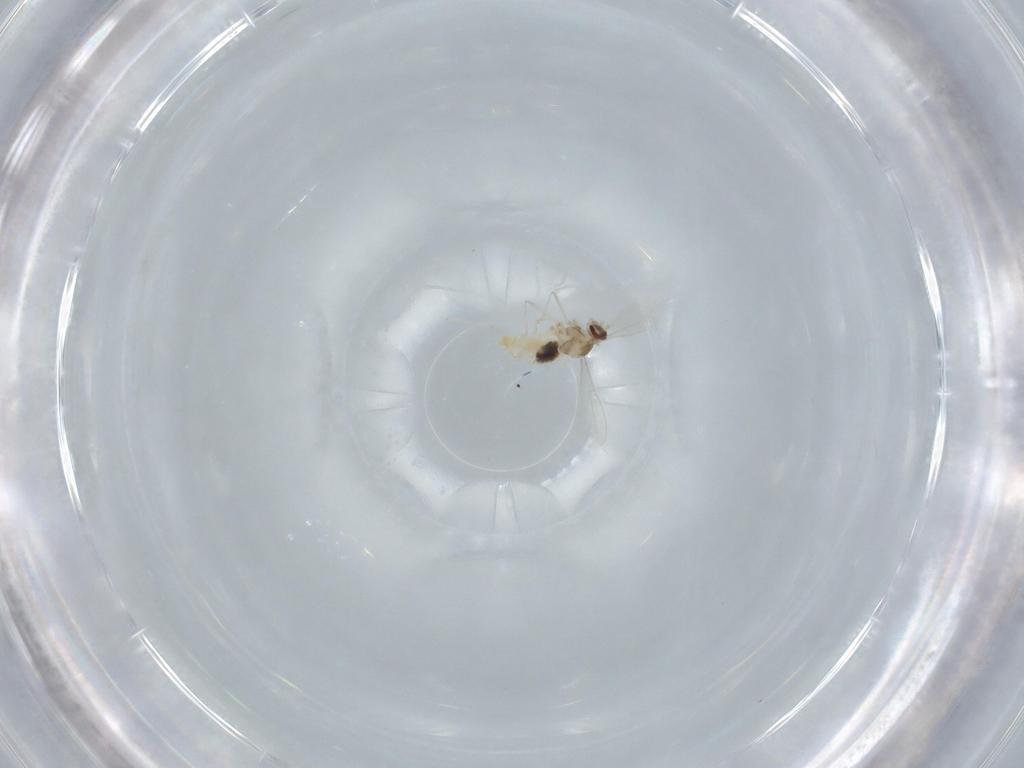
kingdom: Animalia
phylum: Arthropoda
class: Insecta
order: Diptera
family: Cecidomyiidae
